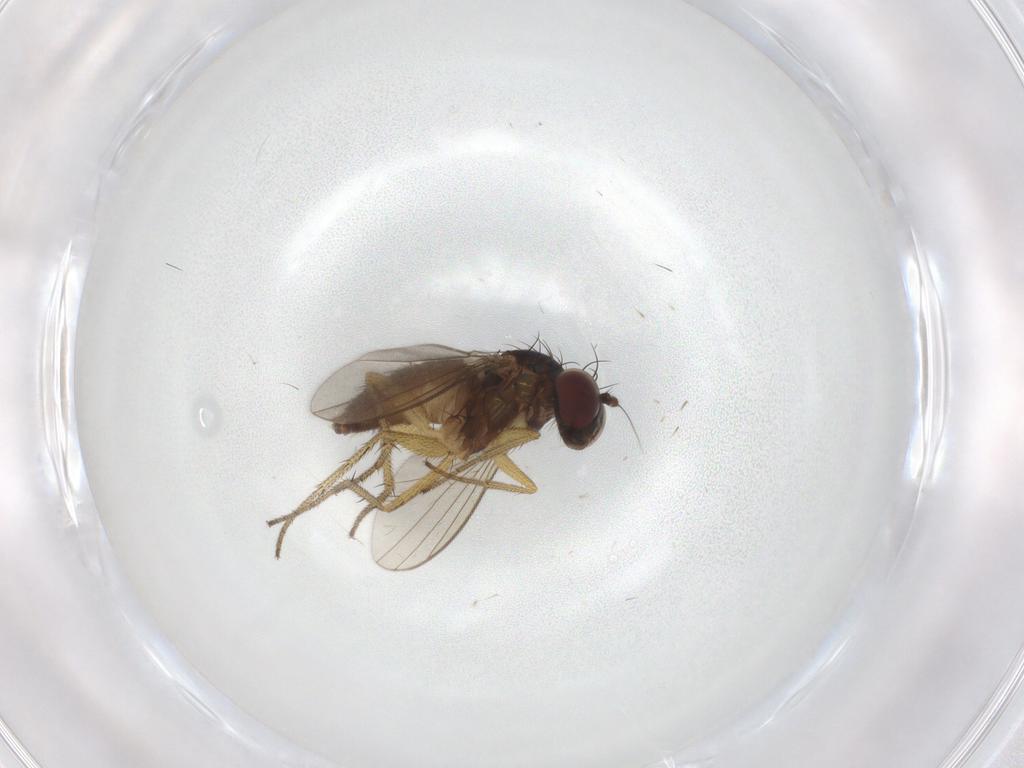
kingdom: Animalia
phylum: Arthropoda
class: Insecta
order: Diptera
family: Dolichopodidae
